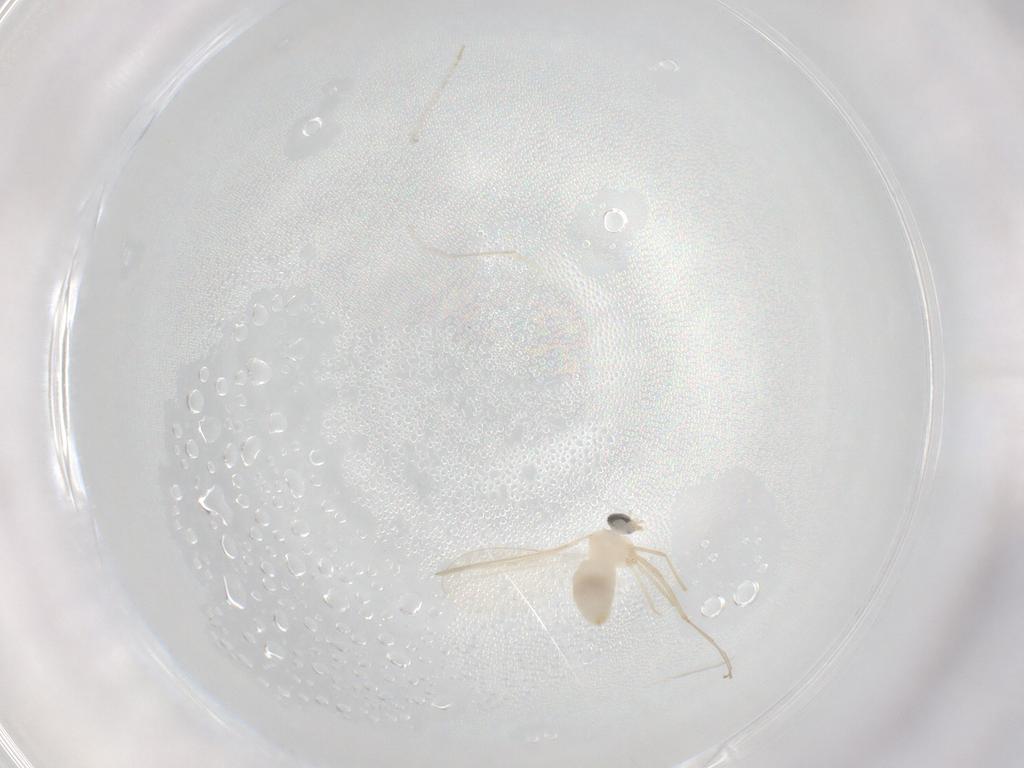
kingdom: Animalia
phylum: Arthropoda
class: Insecta
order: Diptera
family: Cecidomyiidae
